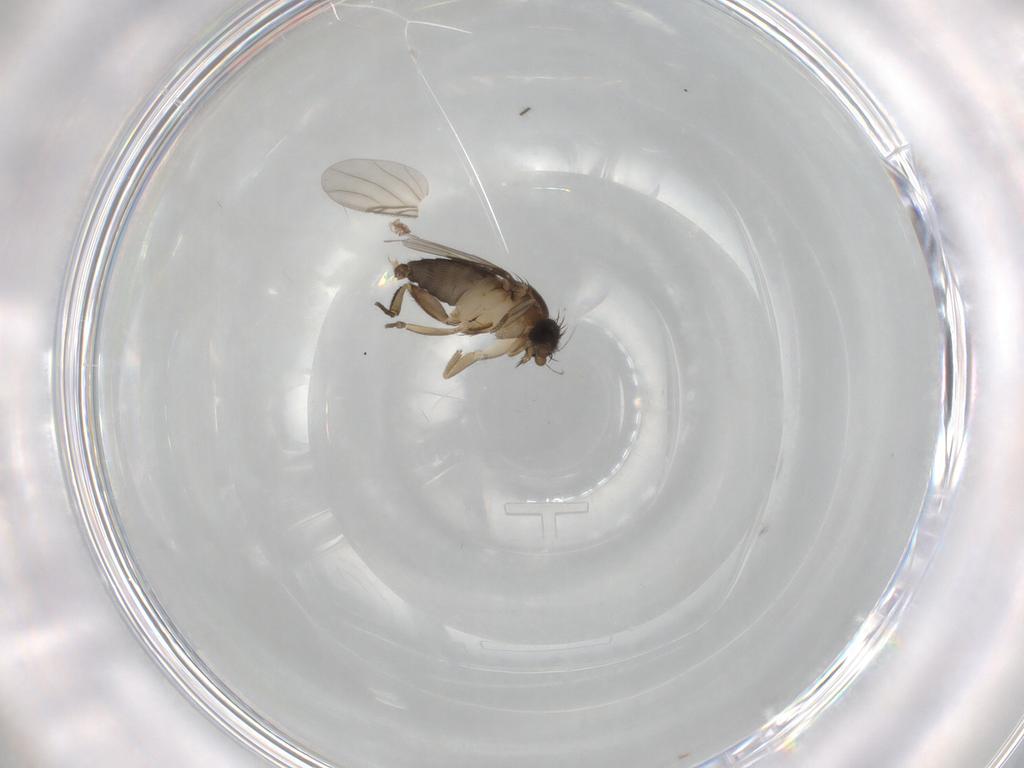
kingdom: Animalia
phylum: Arthropoda
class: Insecta
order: Diptera
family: Phoridae
